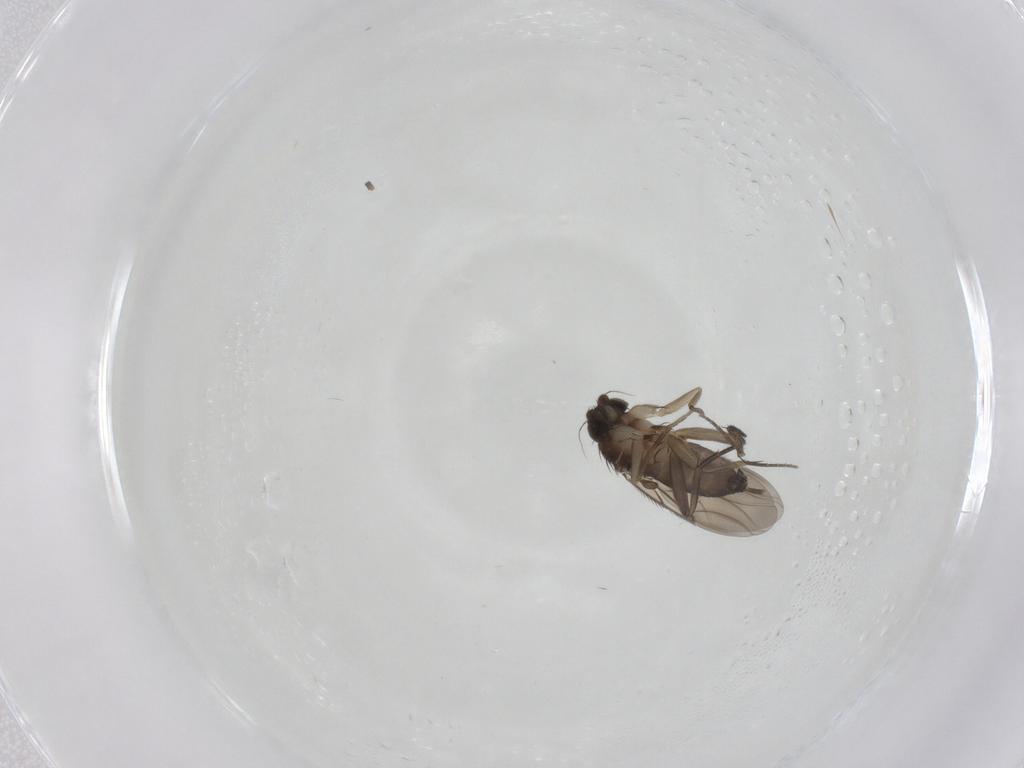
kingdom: Animalia
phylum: Arthropoda
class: Insecta
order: Diptera
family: Phoridae
